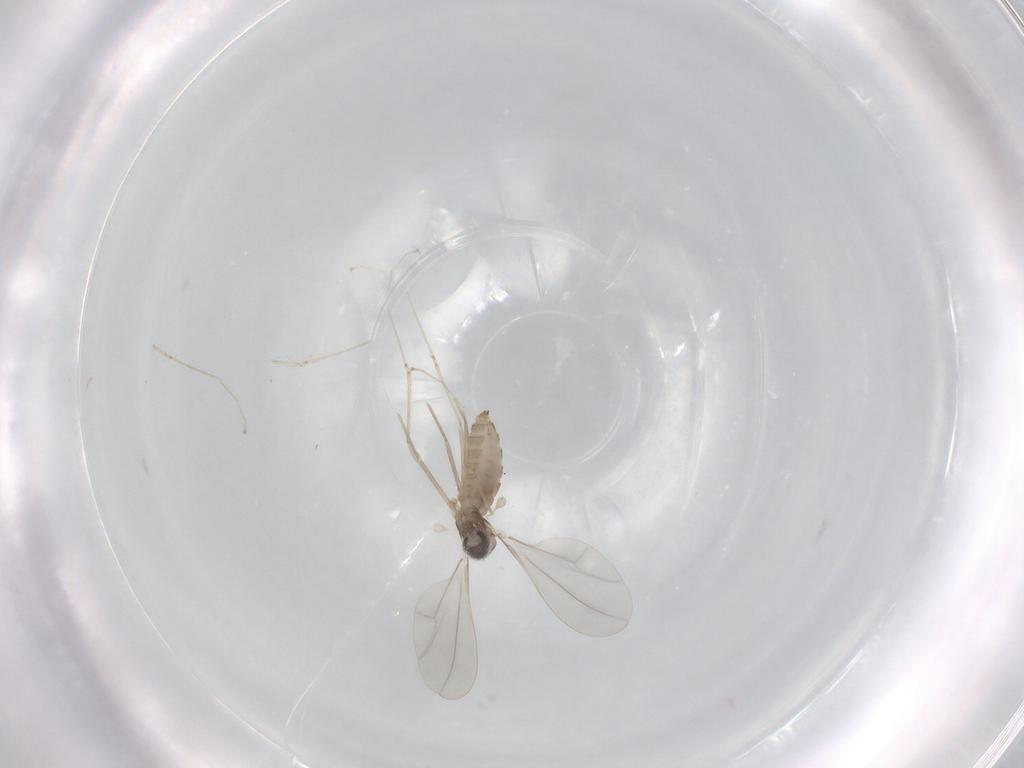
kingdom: Animalia
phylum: Arthropoda
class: Insecta
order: Diptera
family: Cecidomyiidae
